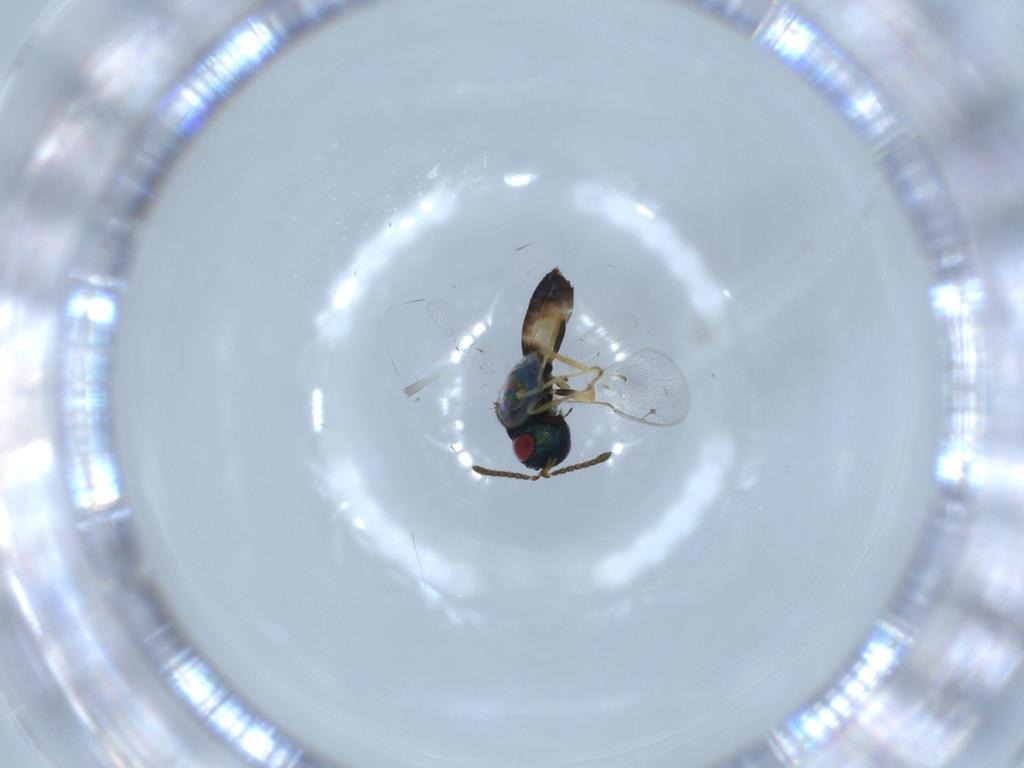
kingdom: Animalia
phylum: Arthropoda
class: Insecta
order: Hymenoptera
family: Pteromalidae
